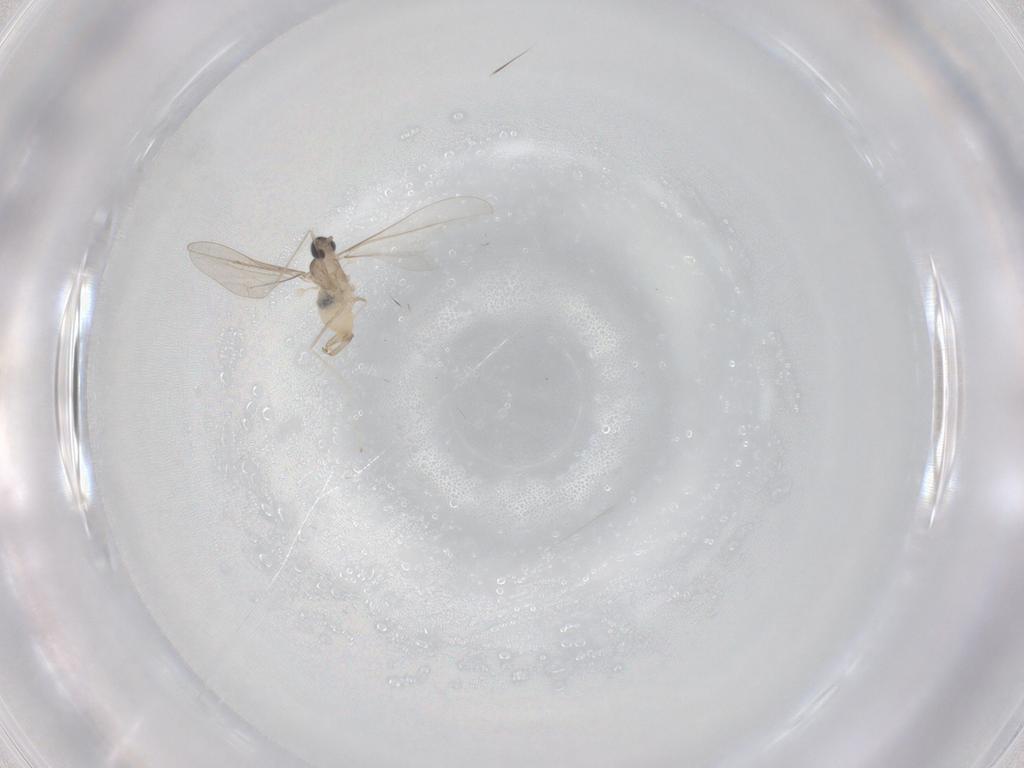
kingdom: Animalia
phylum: Arthropoda
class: Insecta
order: Diptera
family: Cecidomyiidae
